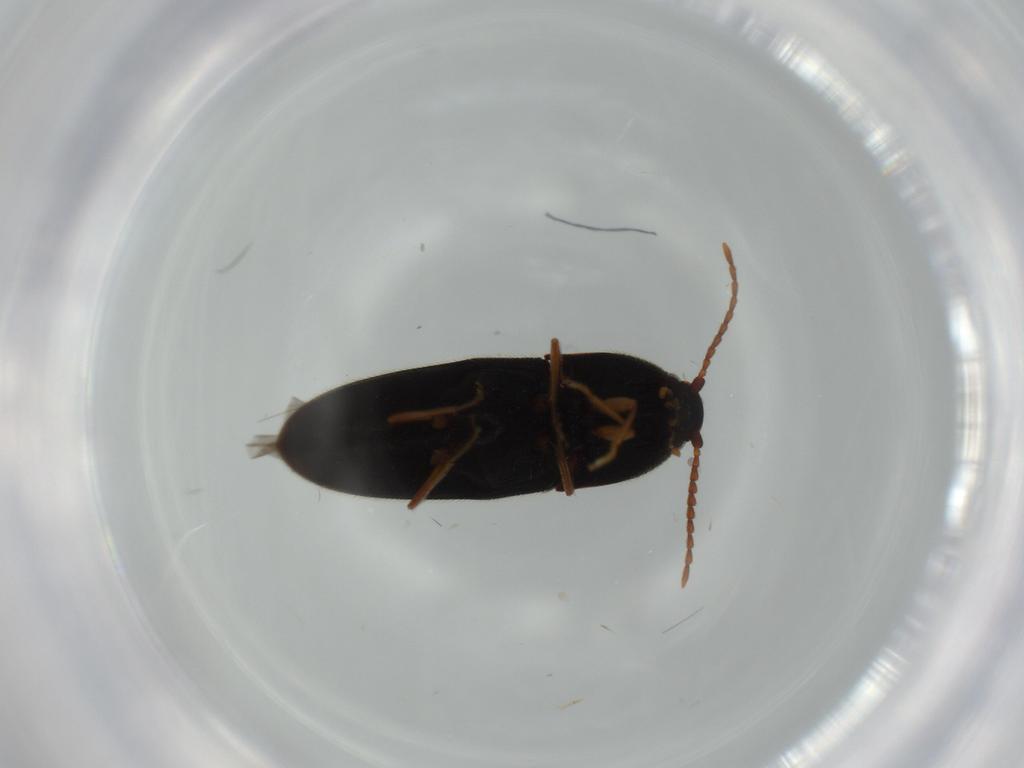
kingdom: Animalia
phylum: Arthropoda
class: Insecta
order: Coleoptera
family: Elateridae
